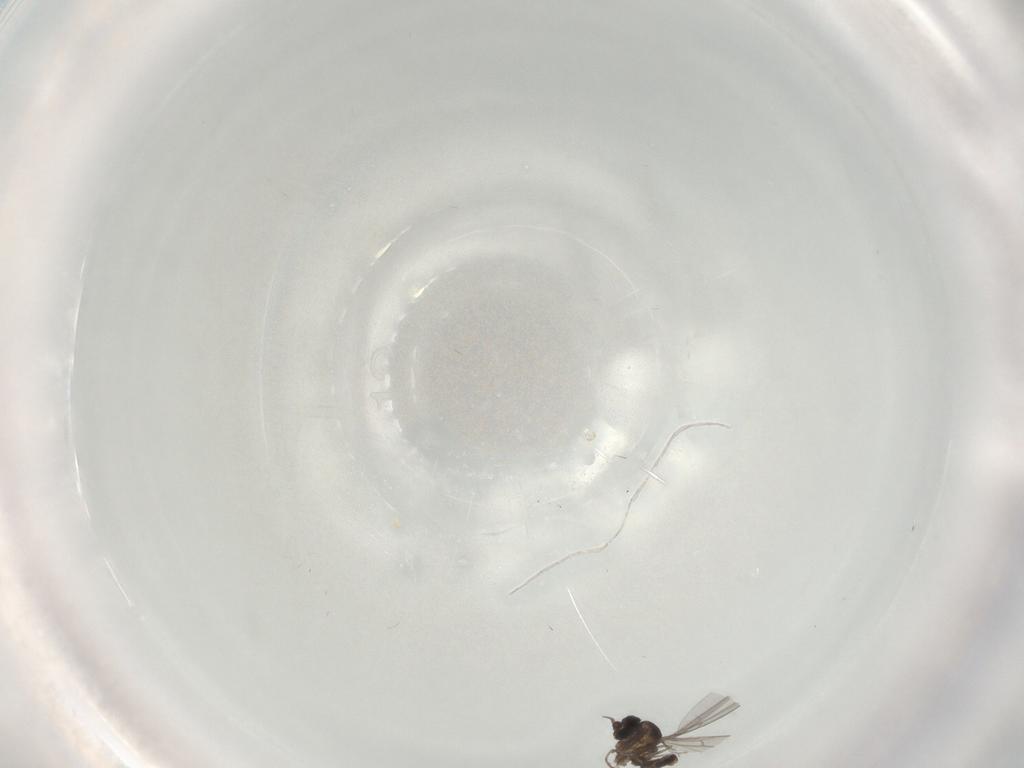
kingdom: Animalia
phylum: Arthropoda
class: Insecta
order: Diptera
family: Cecidomyiidae
